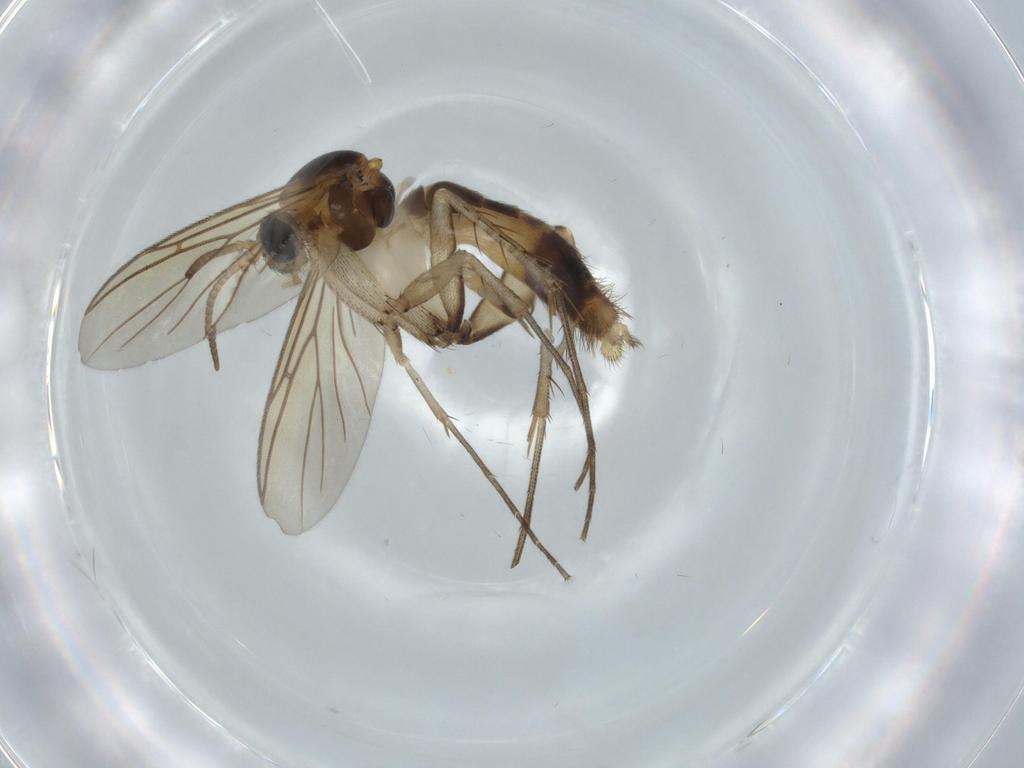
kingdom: Animalia
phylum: Arthropoda
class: Insecta
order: Diptera
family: Mycetophilidae
